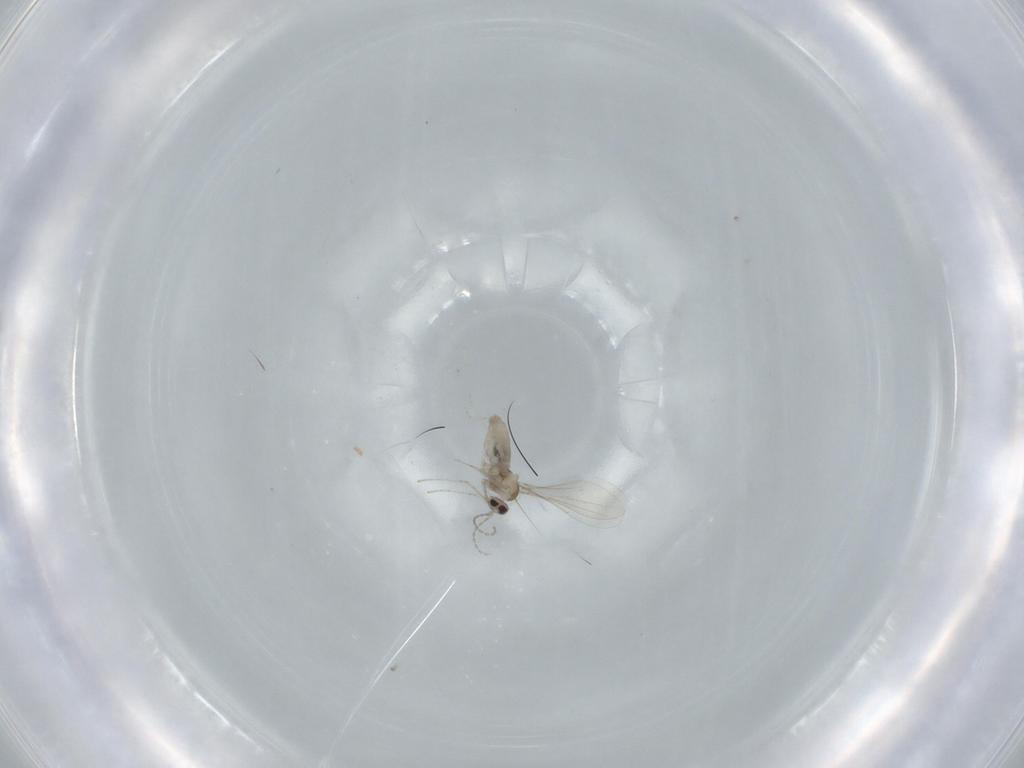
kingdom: Animalia
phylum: Arthropoda
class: Insecta
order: Diptera
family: Cecidomyiidae
